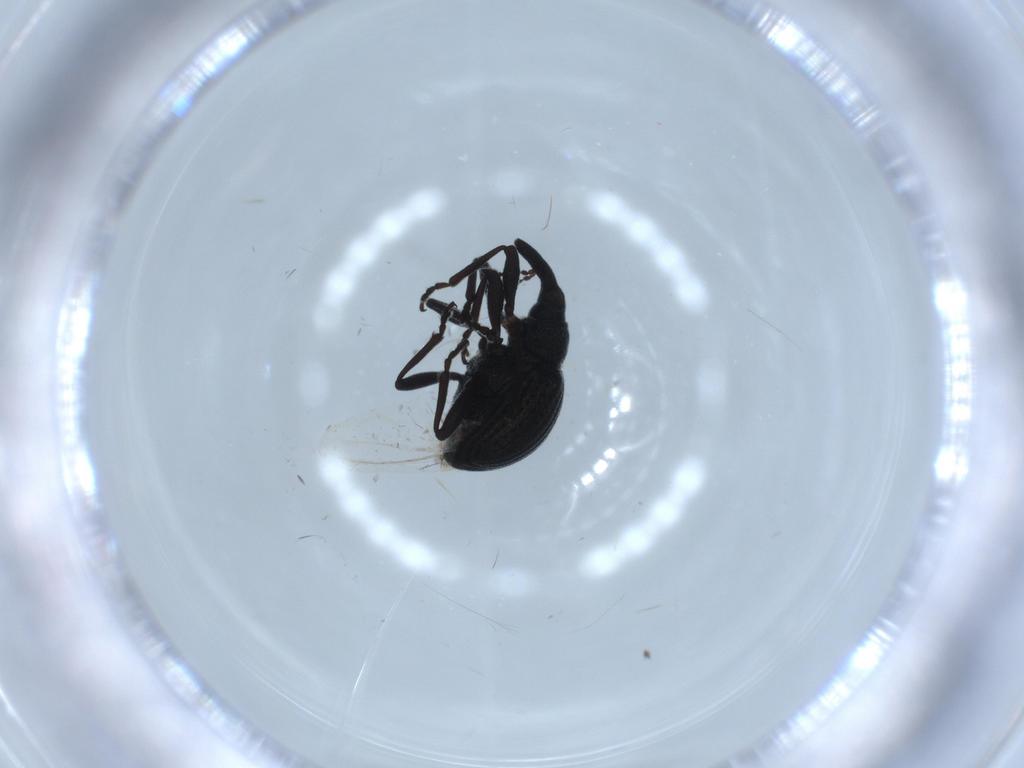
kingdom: Animalia
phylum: Arthropoda
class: Insecta
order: Coleoptera
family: Brentidae
